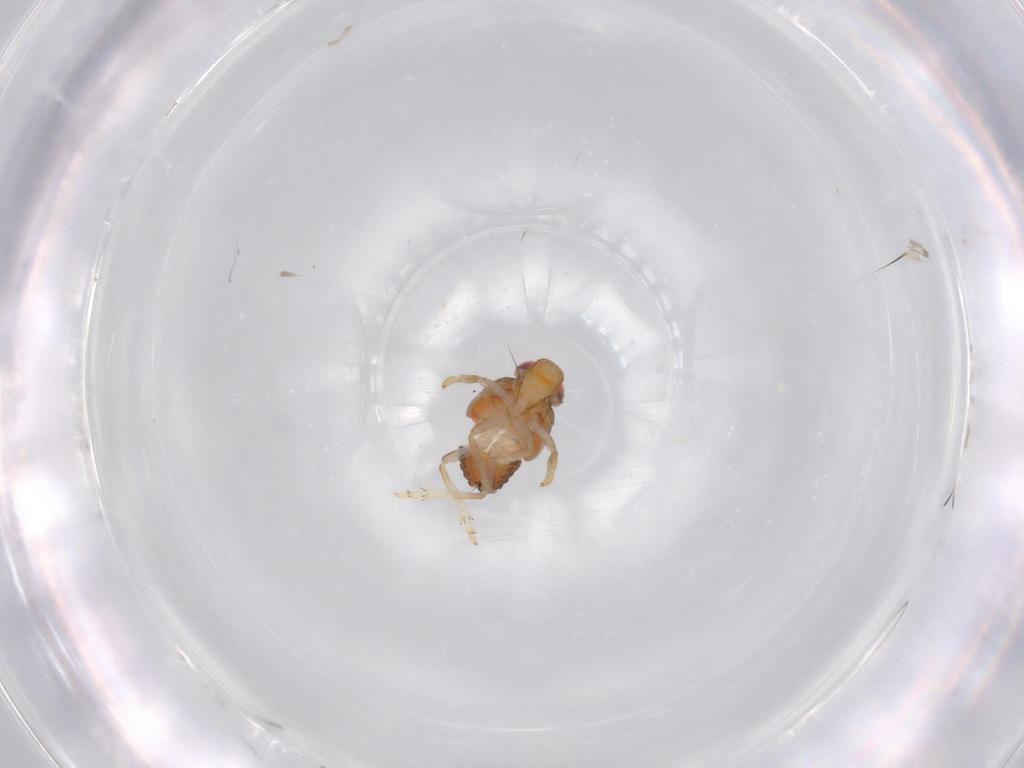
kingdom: Animalia
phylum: Arthropoda
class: Insecta
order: Hemiptera
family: Issidae
